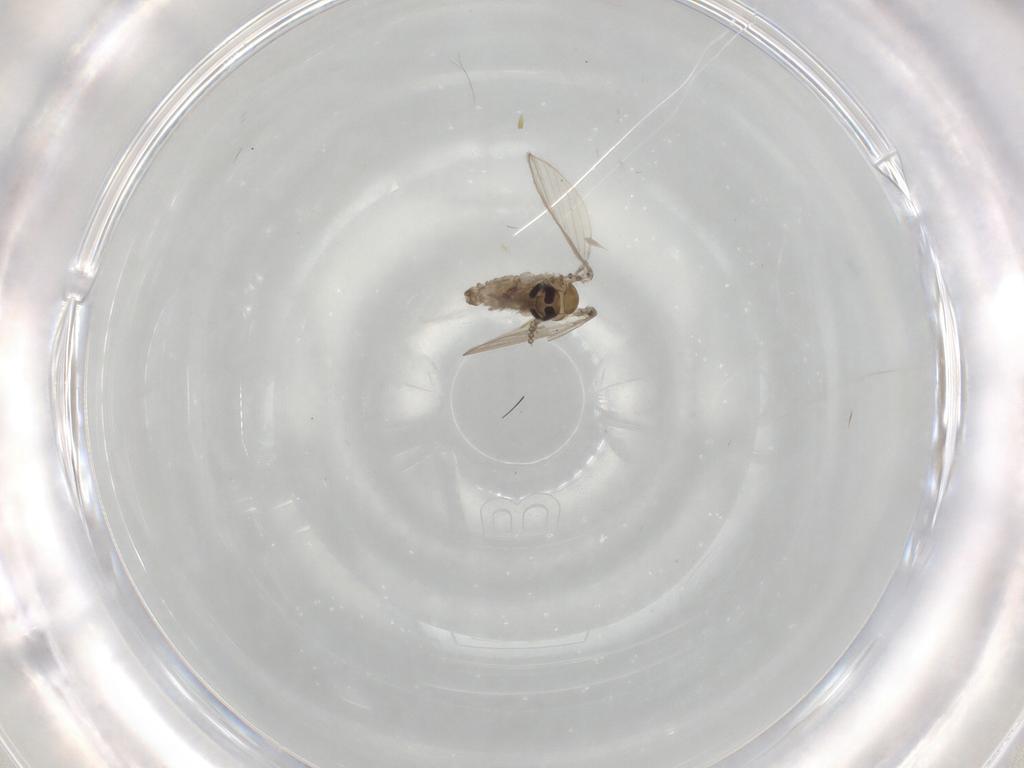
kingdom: Animalia
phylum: Arthropoda
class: Insecta
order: Diptera
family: Psychodidae
